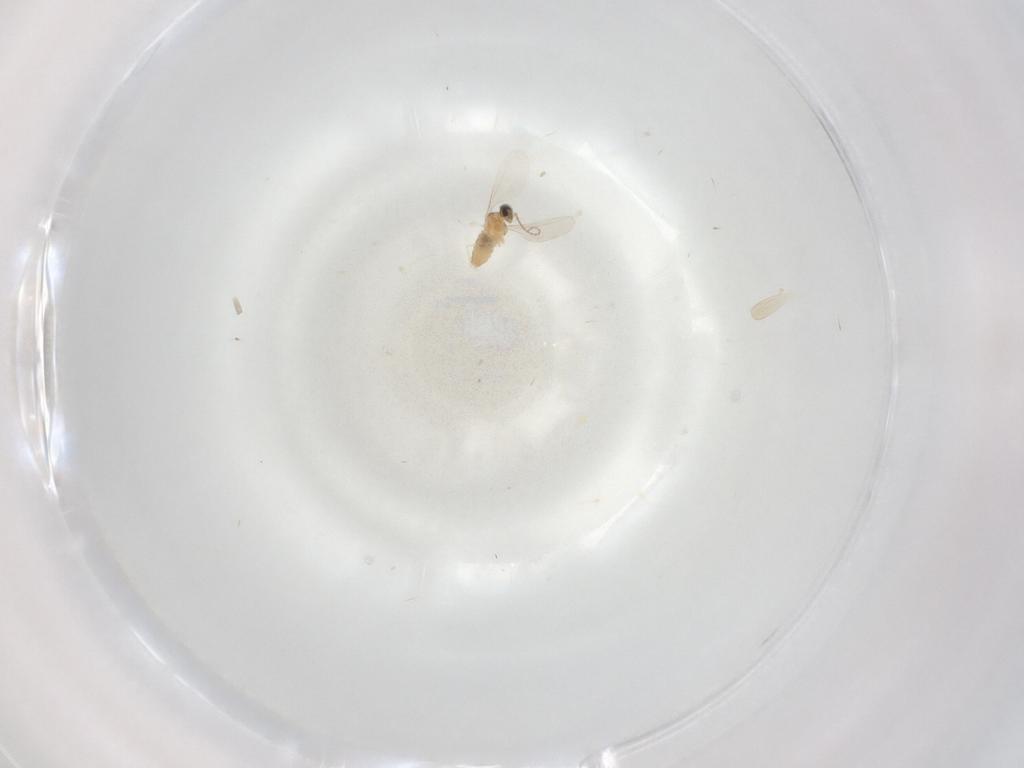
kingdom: Animalia
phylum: Arthropoda
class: Insecta
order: Diptera
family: Cecidomyiidae
